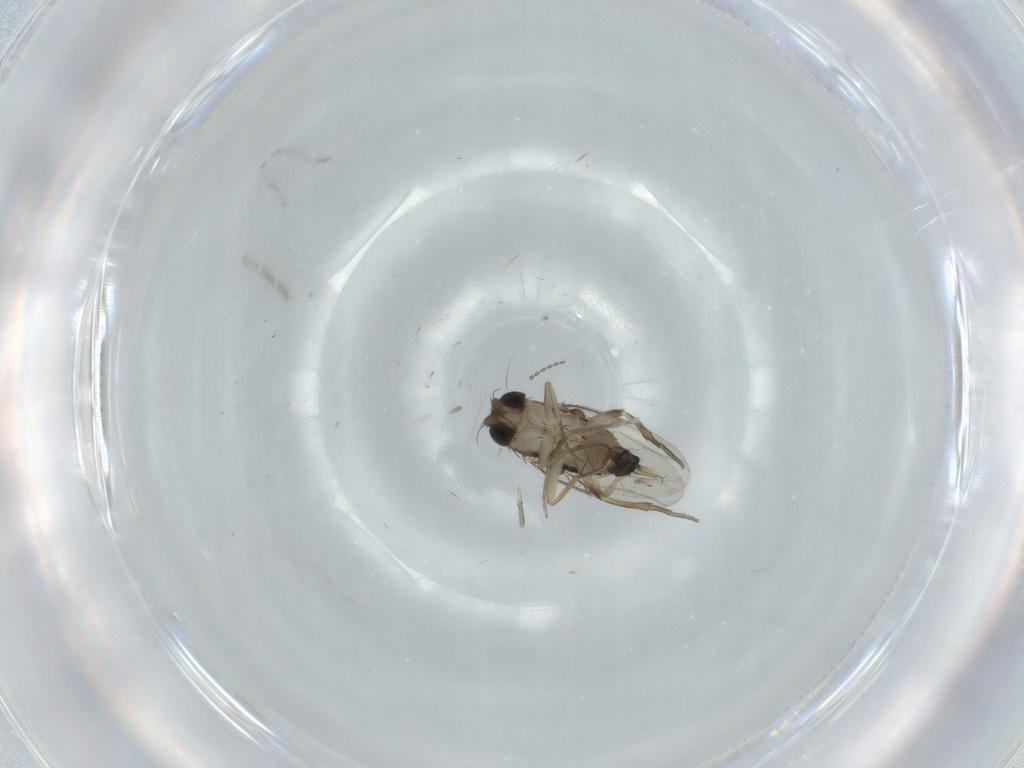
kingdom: Animalia
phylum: Arthropoda
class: Insecta
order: Diptera
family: Phoridae
